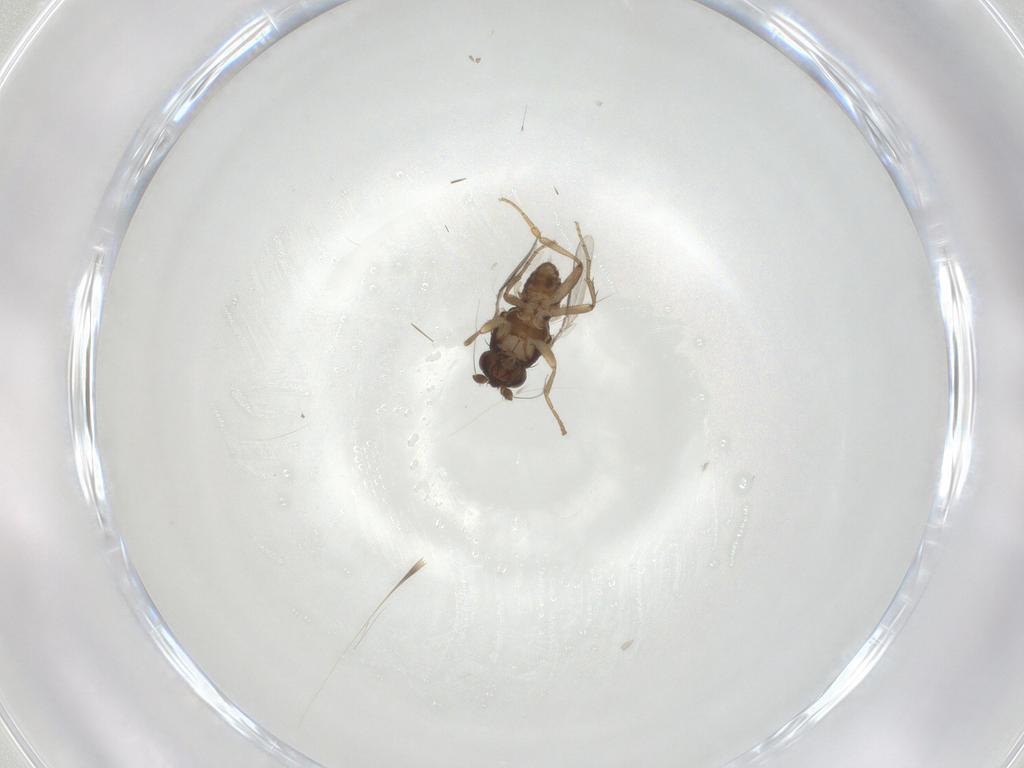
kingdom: Animalia
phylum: Arthropoda
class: Insecta
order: Diptera
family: Sphaeroceridae
